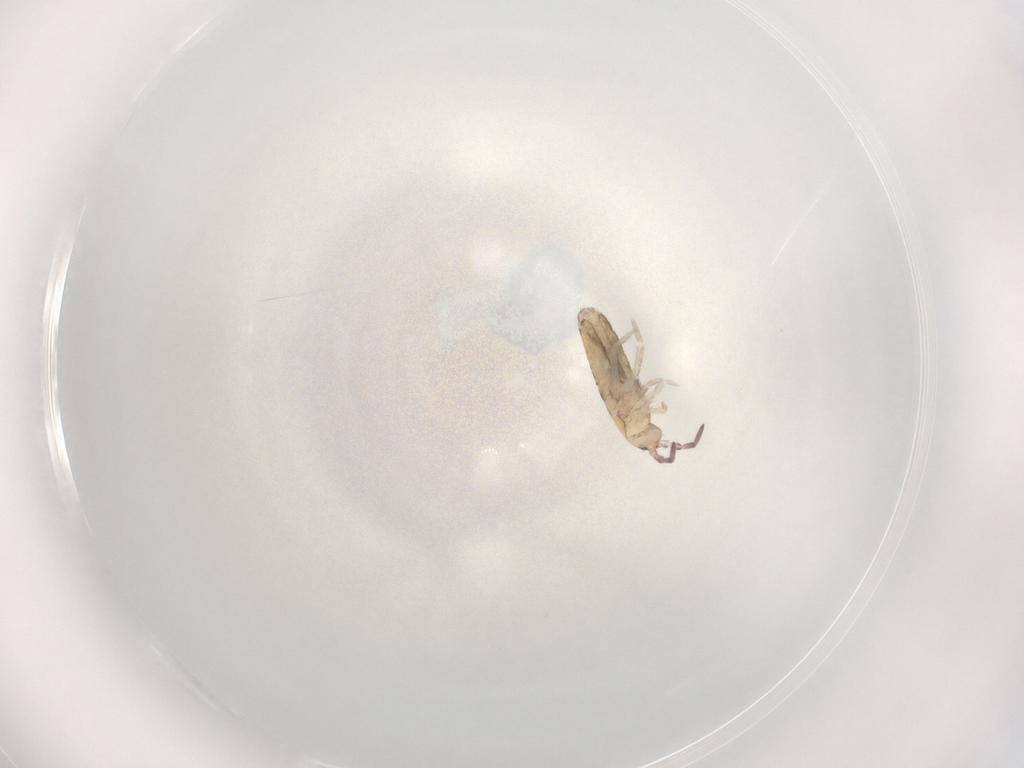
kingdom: Animalia
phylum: Arthropoda
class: Collembola
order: Entomobryomorpha
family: Entomobryidae
